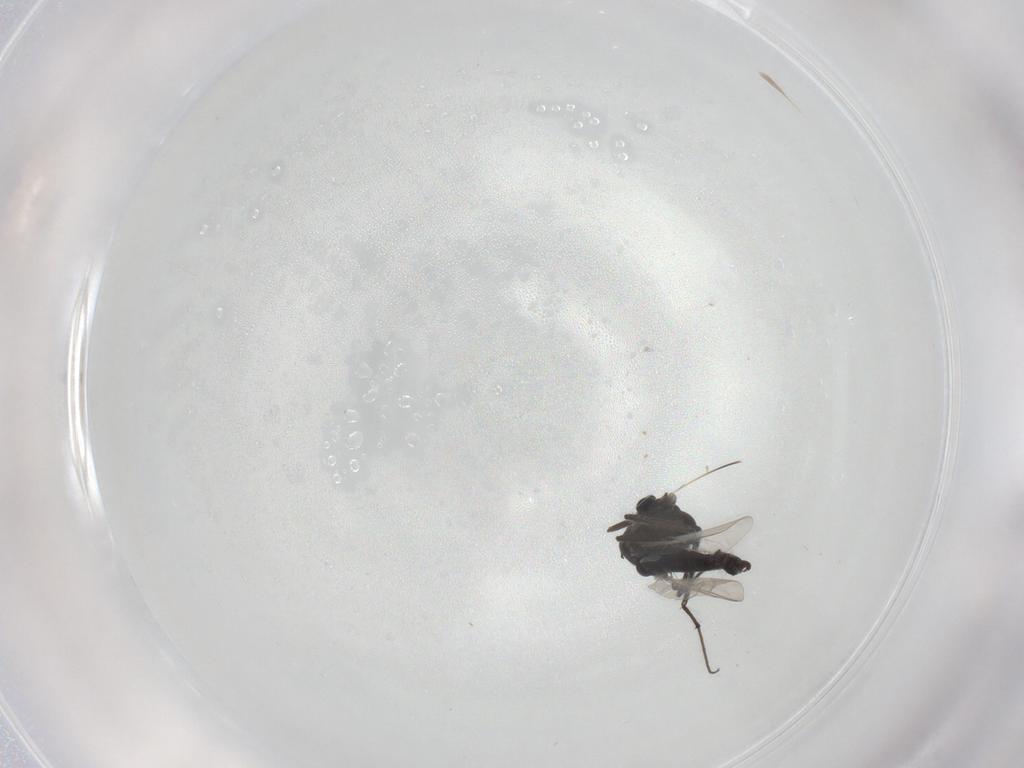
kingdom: Animalia
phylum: Arthropoda
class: Insecta
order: Diptera
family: Chironomidae
